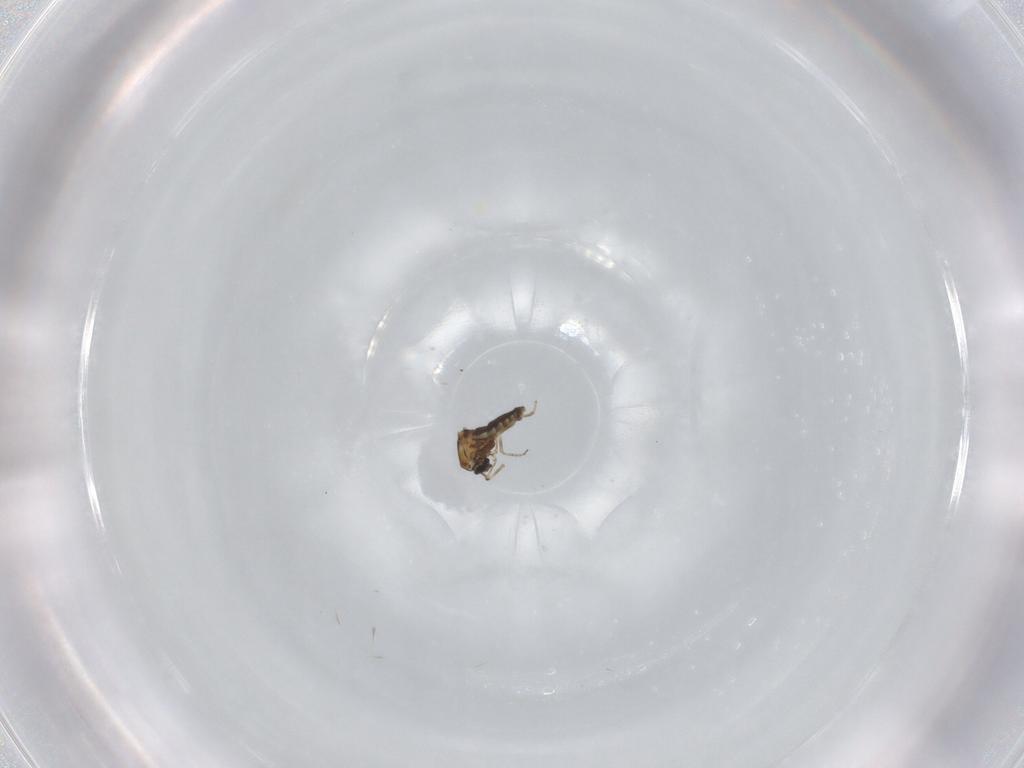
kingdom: Animalia
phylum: Arthropoda
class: Insecta
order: Diptera
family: Ceratopogonidae
